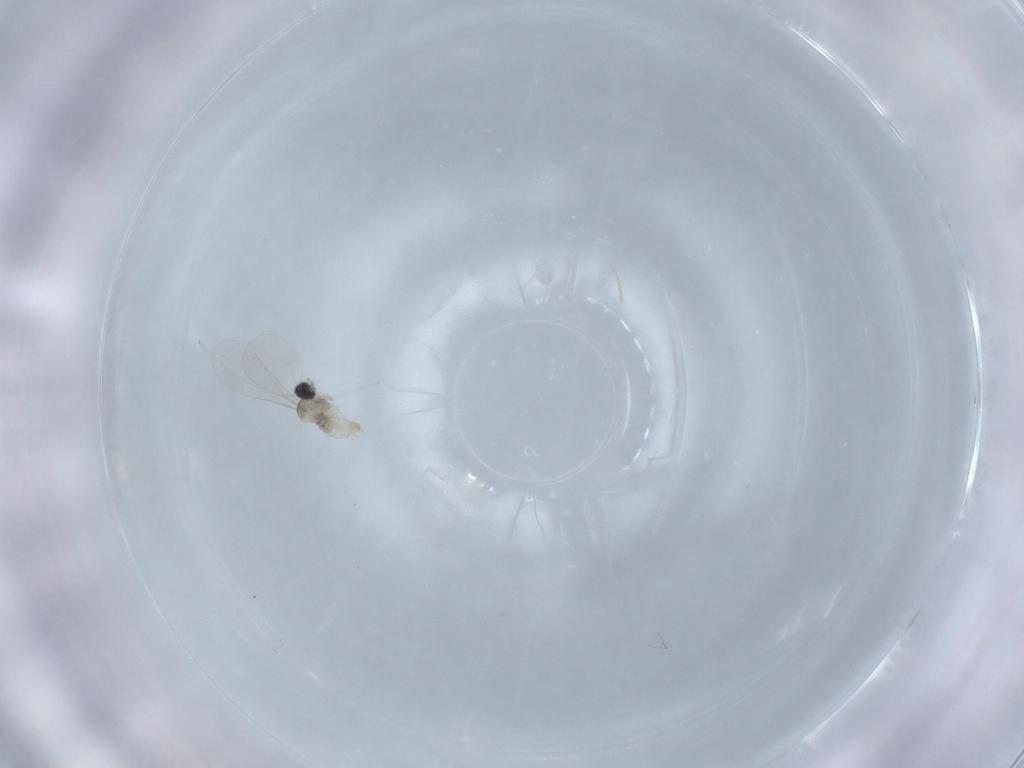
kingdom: Animalia
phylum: Arthropoda
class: Insecta
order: Diptera
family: Cecidomyiidae
